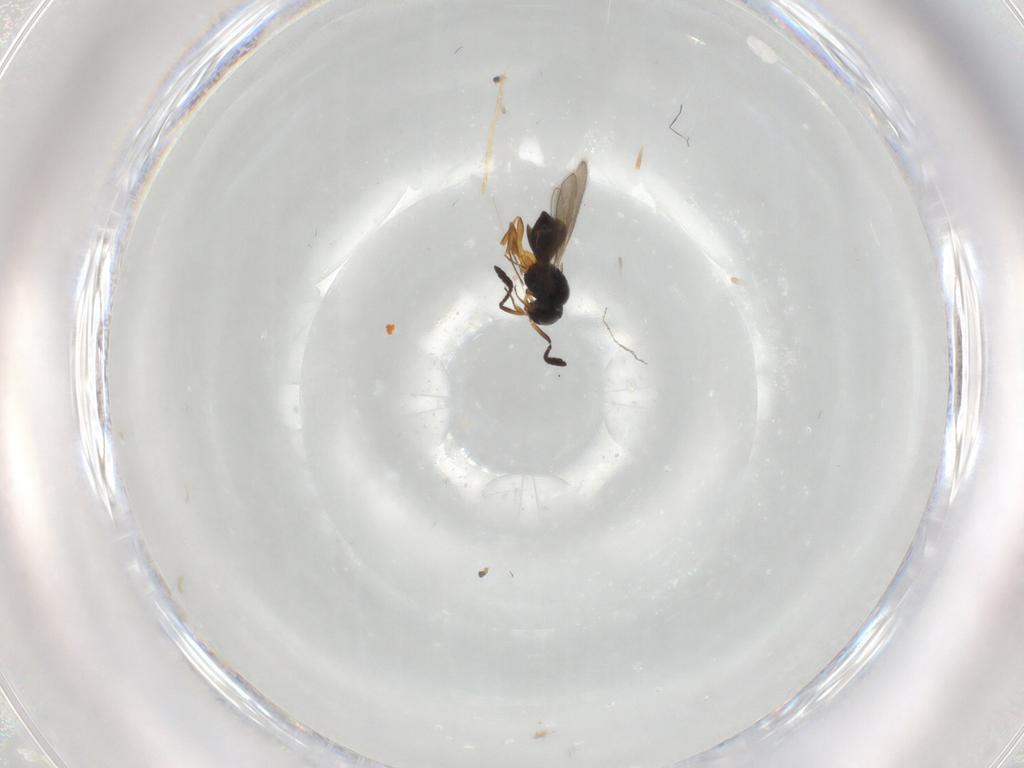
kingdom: Animalia
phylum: Arthropoda
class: Insecta
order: Hymenoptera
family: Scelionidae
